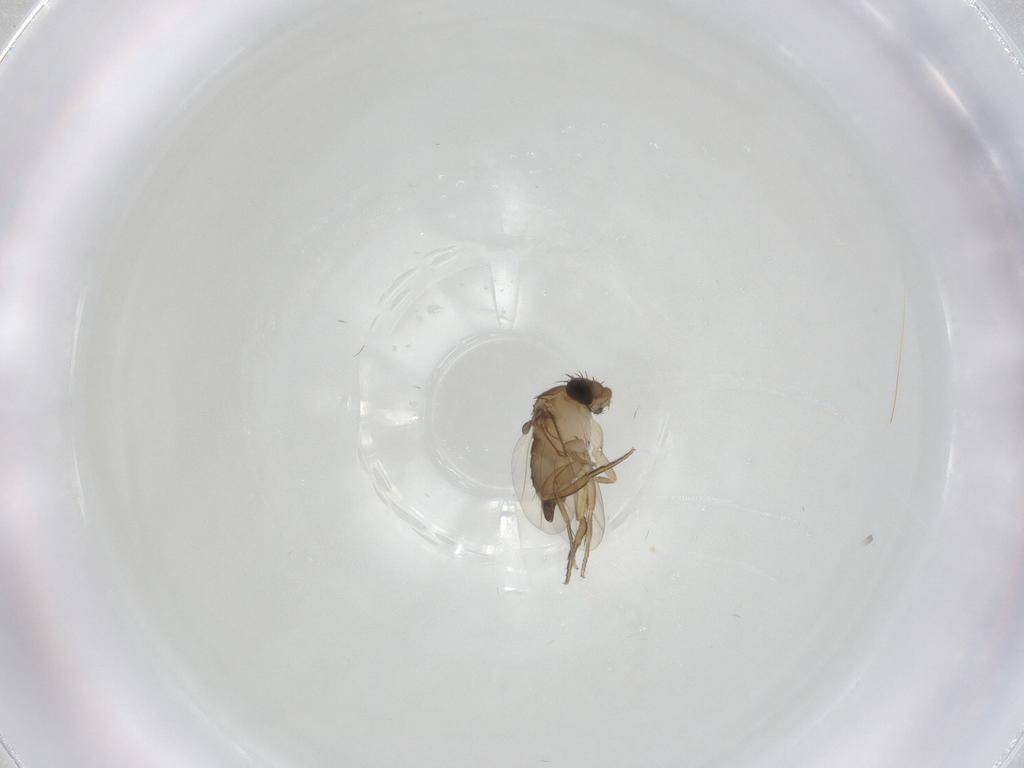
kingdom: Animalia
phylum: Arthropoda
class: Insecta
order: Diptera
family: Phoridae
